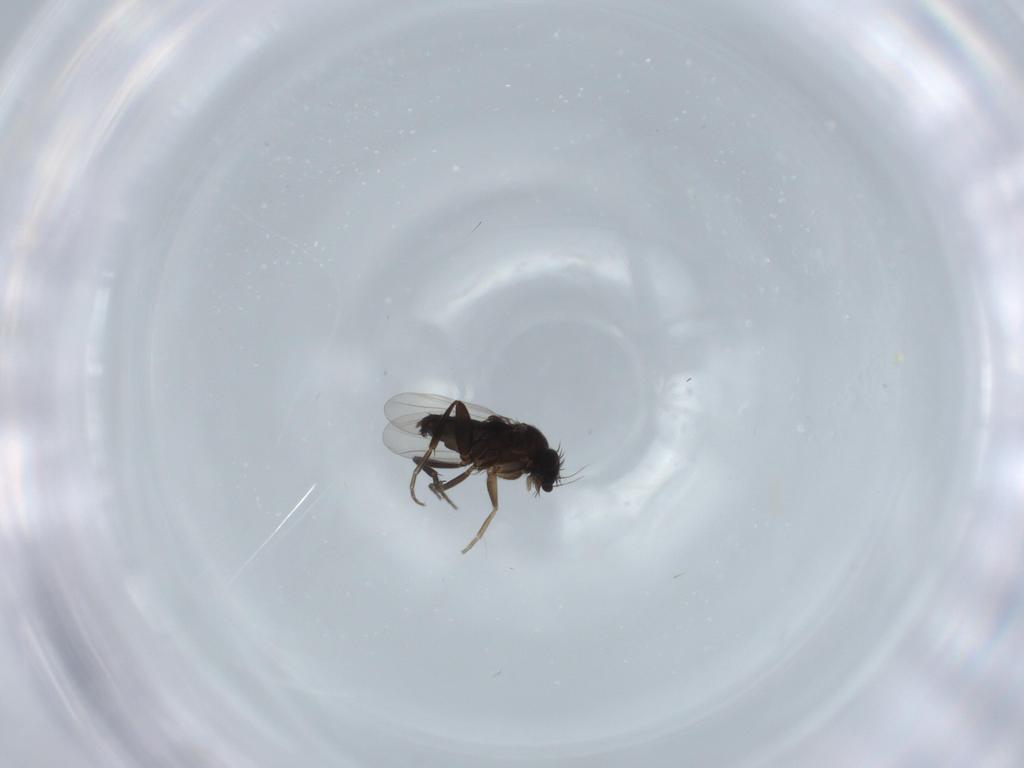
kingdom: Animalia
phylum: Arthropoda
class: Insecta
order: Diptera
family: Phoridae
